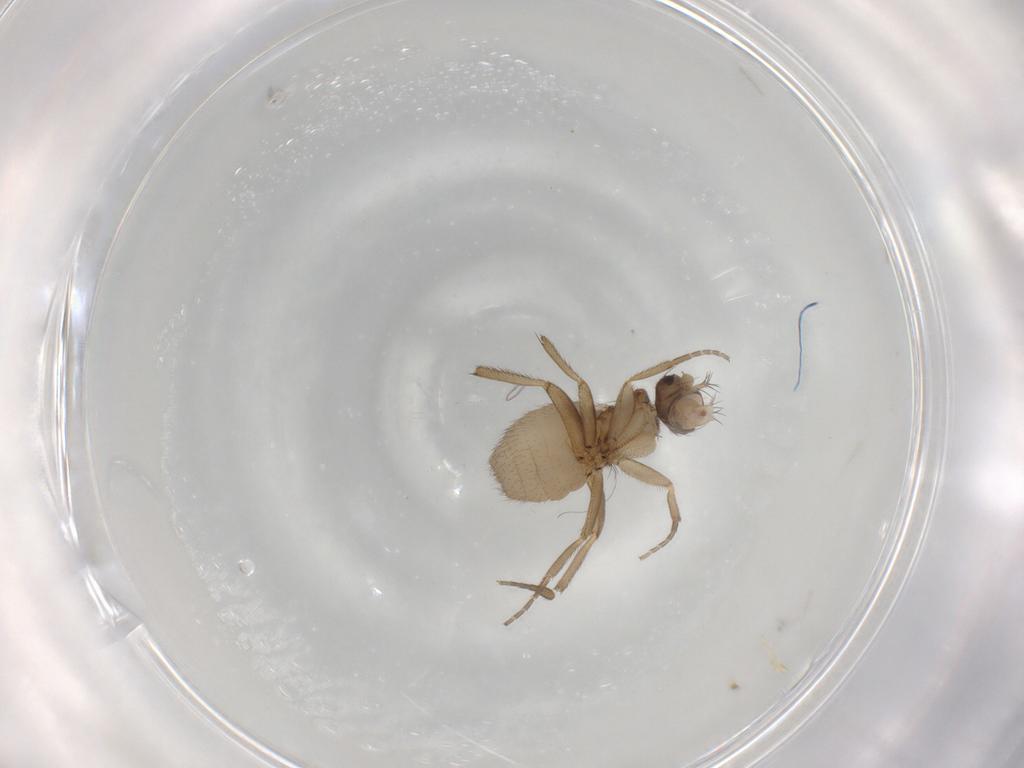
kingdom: Animalia
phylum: Arthropoda
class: Insecta
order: Diptera
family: Cecidomyiidae
